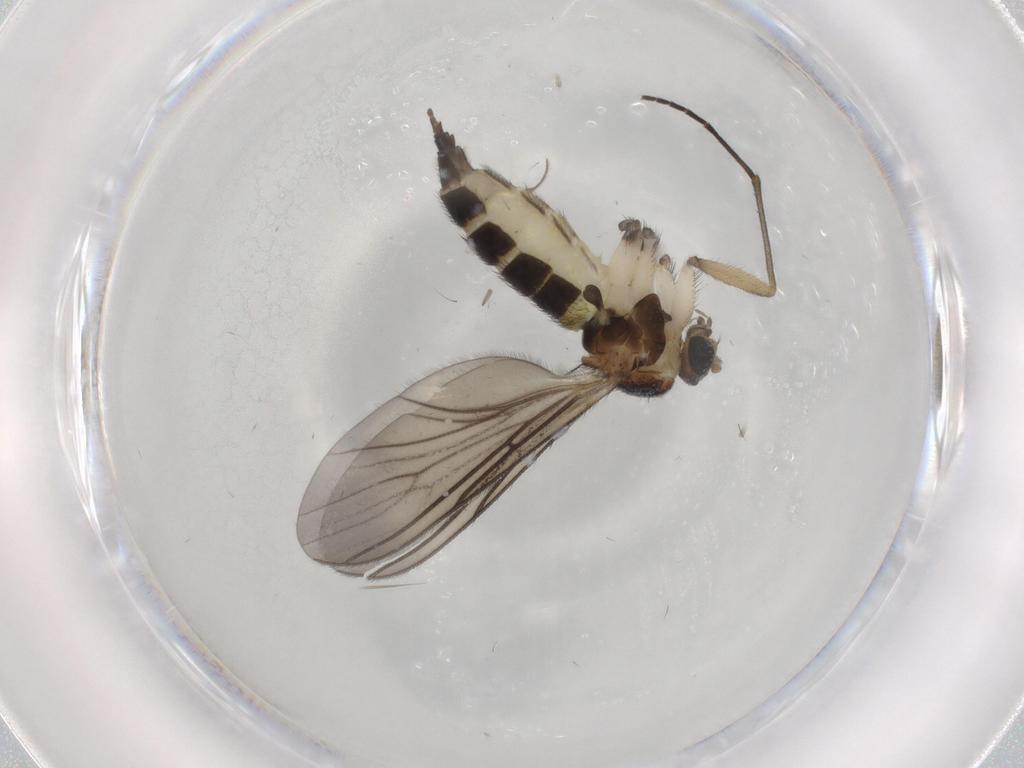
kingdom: Animalia
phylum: Arthropoda
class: Insecta
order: Diptera
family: Sciaridae
